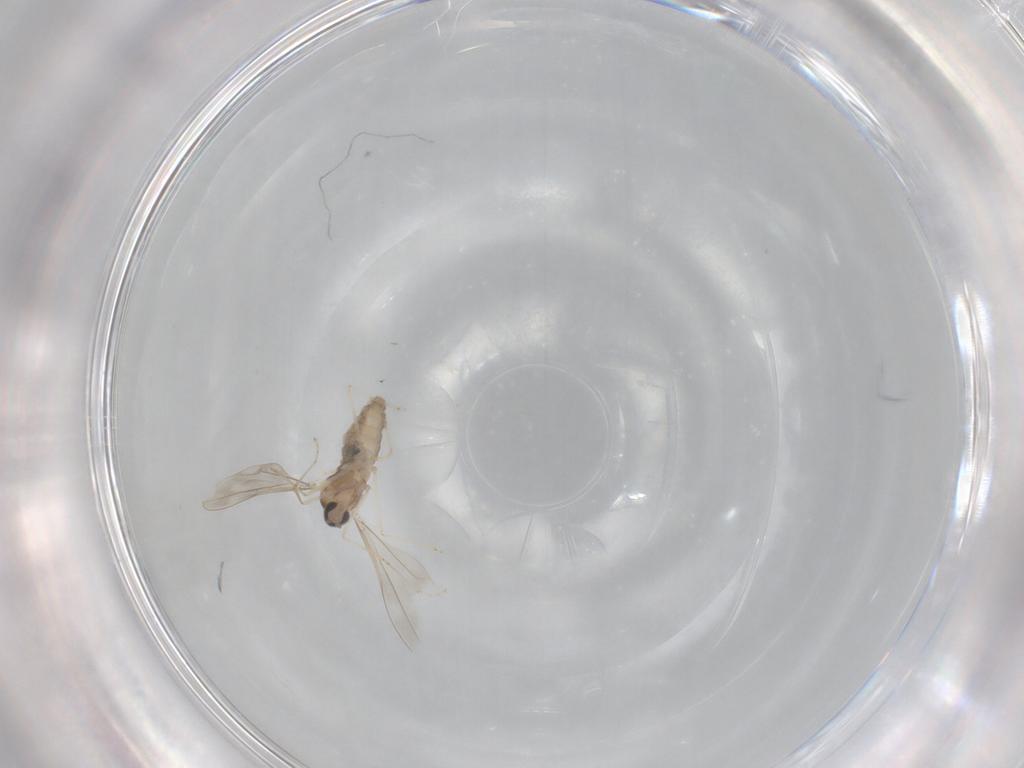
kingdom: Animalia
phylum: Arthropoda
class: Insecta
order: Diptera
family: Cecidomyiidae
